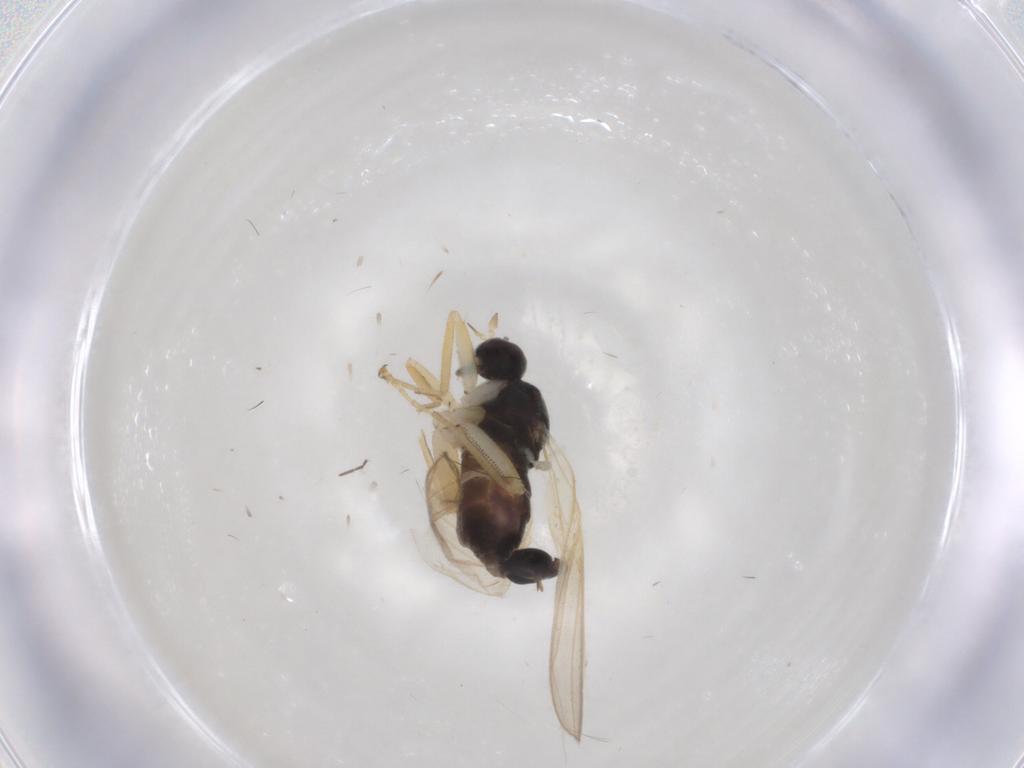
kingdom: Animalia
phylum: Arthropoda
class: Insecta
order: Diptera
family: Hybotidae
